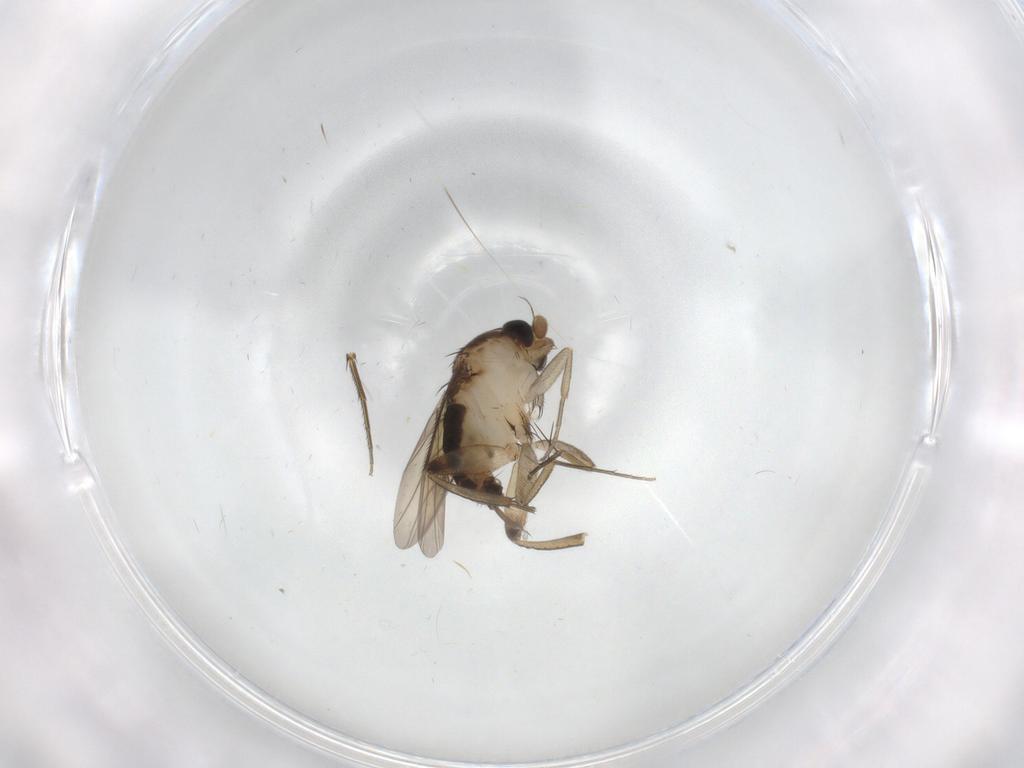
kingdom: Animalia
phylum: Arthropoda
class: Insecta
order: Diptera
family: Phoridae
